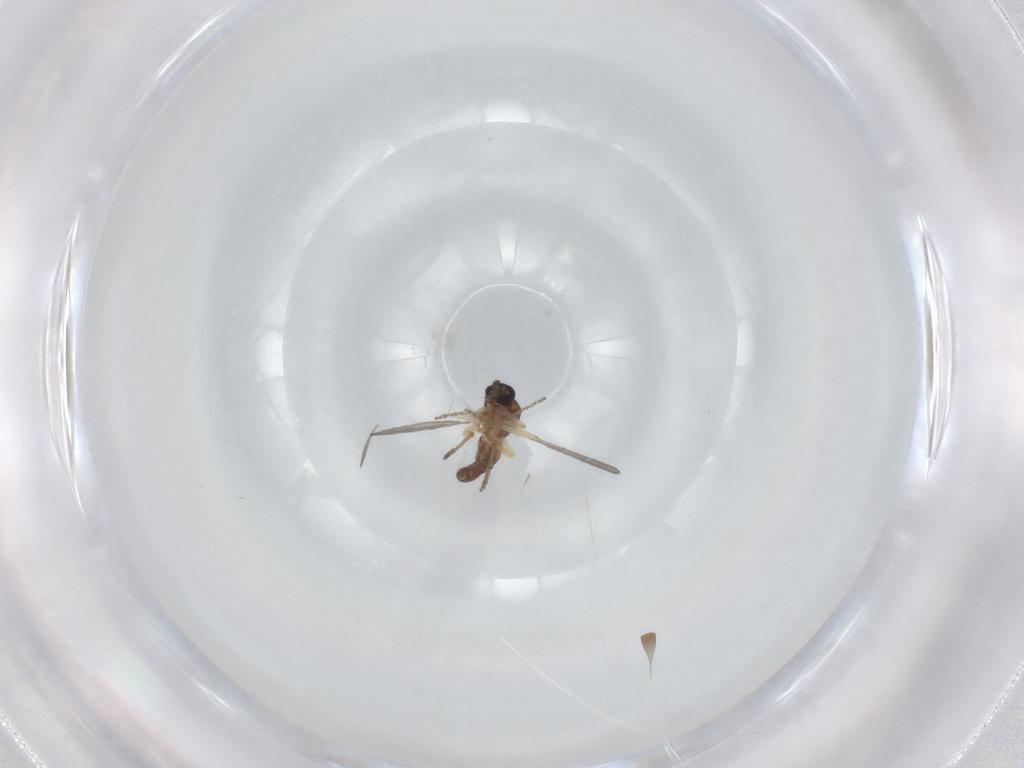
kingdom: Animalia
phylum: Arthropoda
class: Insecta
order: Diptera
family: Ceratopogonidae
